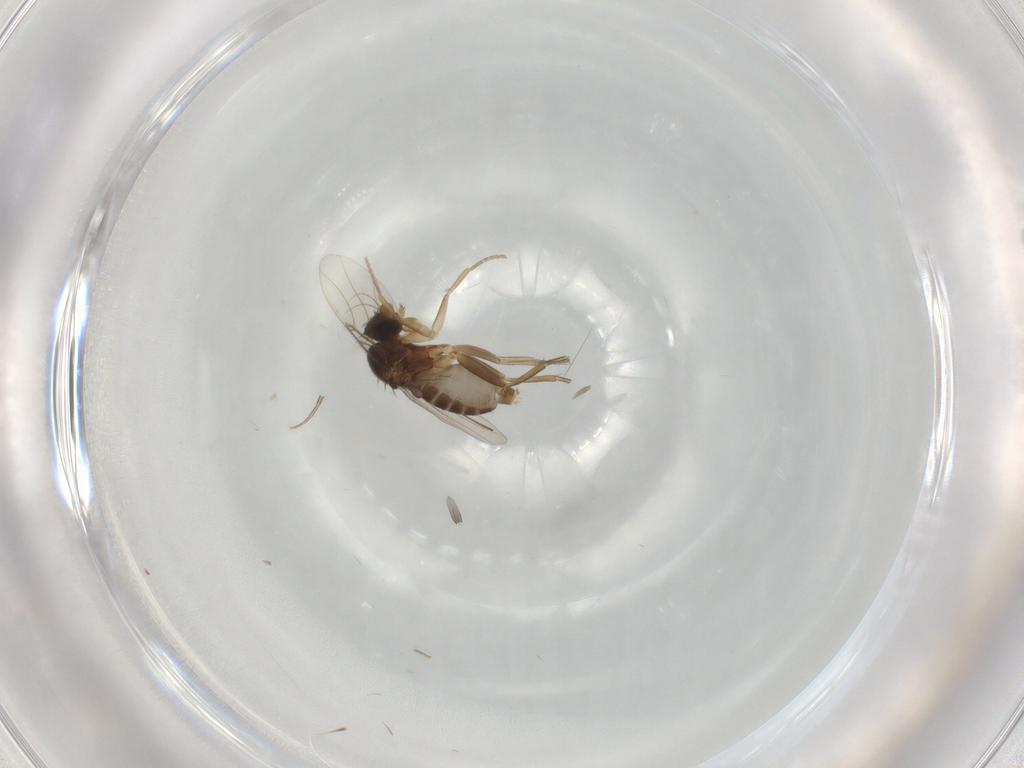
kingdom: Animalia
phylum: Arthropoda
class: Insecta
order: Diptera
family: Phoridae
